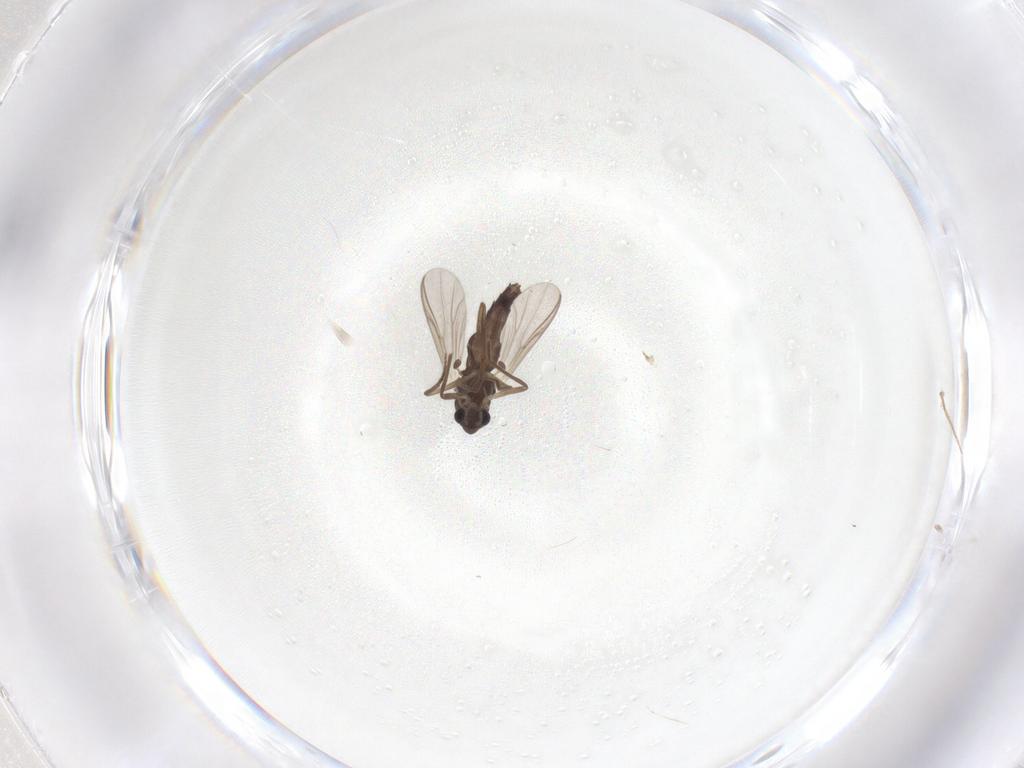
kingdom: Animalia
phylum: Arthropoda
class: Insecta
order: Diptera
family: Chironomidae
